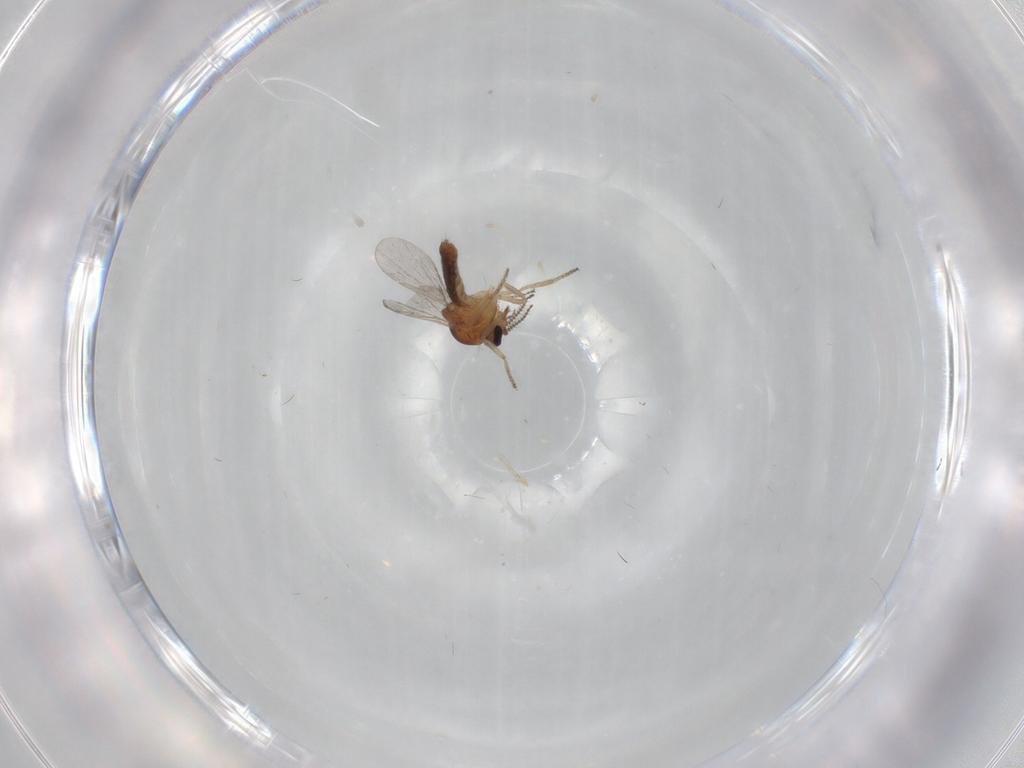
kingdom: Animalia
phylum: Arthropoda
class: Insecta
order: Diptera
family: Ceratopogonidae
